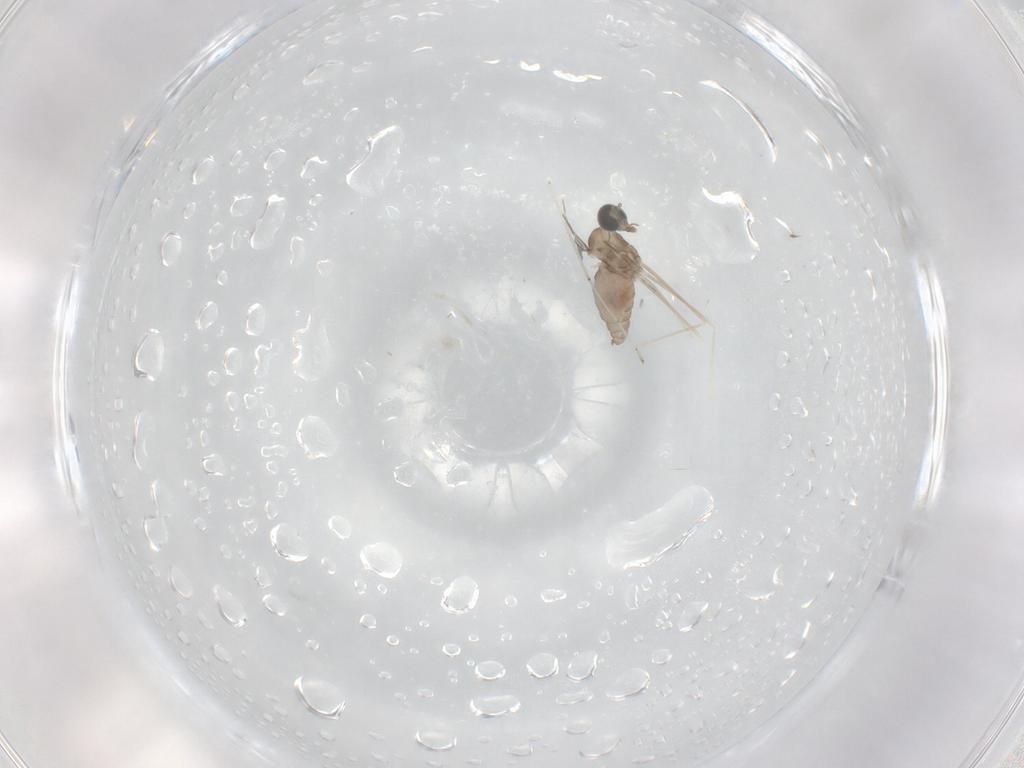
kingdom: Animalia
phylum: Arthropoda
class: Insecta
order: Diptera
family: Cecidomyiidae
